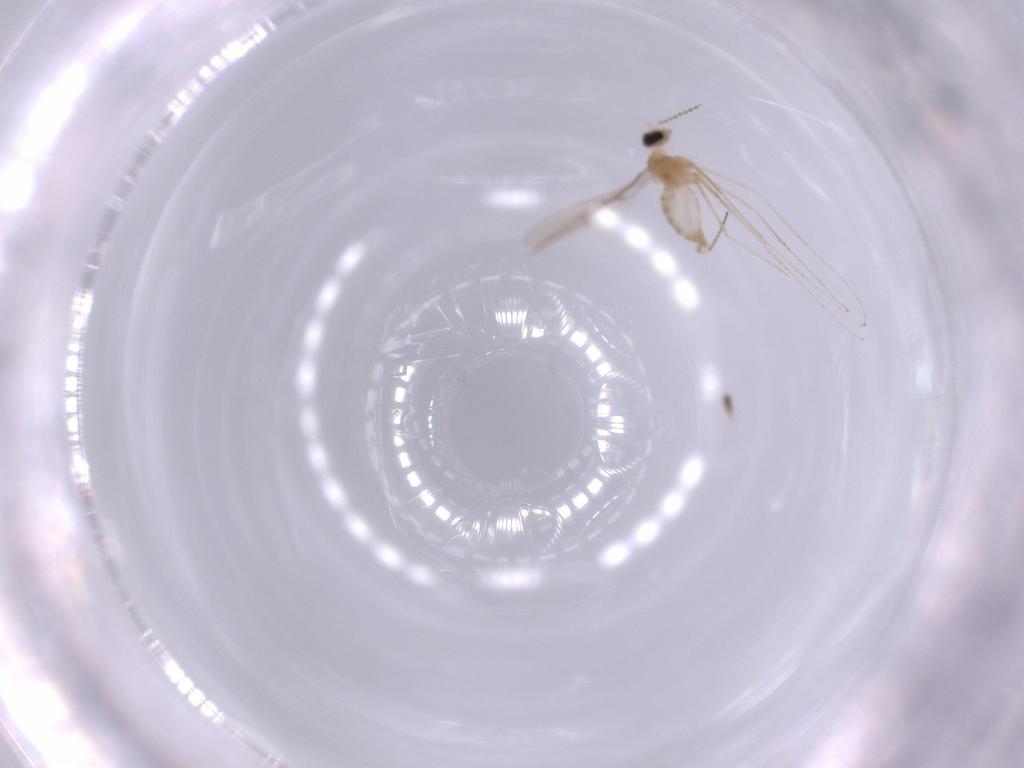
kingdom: Animalia
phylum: Arthropoda
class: Insecta
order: Diptera
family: Cecidomyiidae
